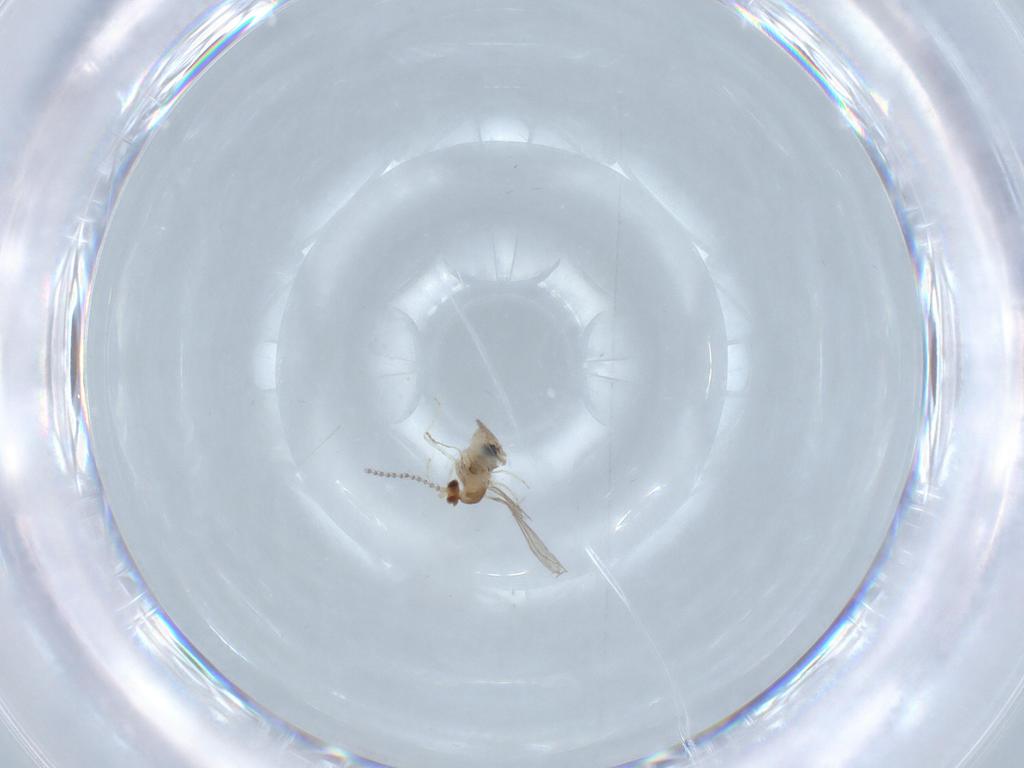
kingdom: Animalia
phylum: Arthropoda
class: Insecta
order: Diptera
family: Cecidomyiidae
